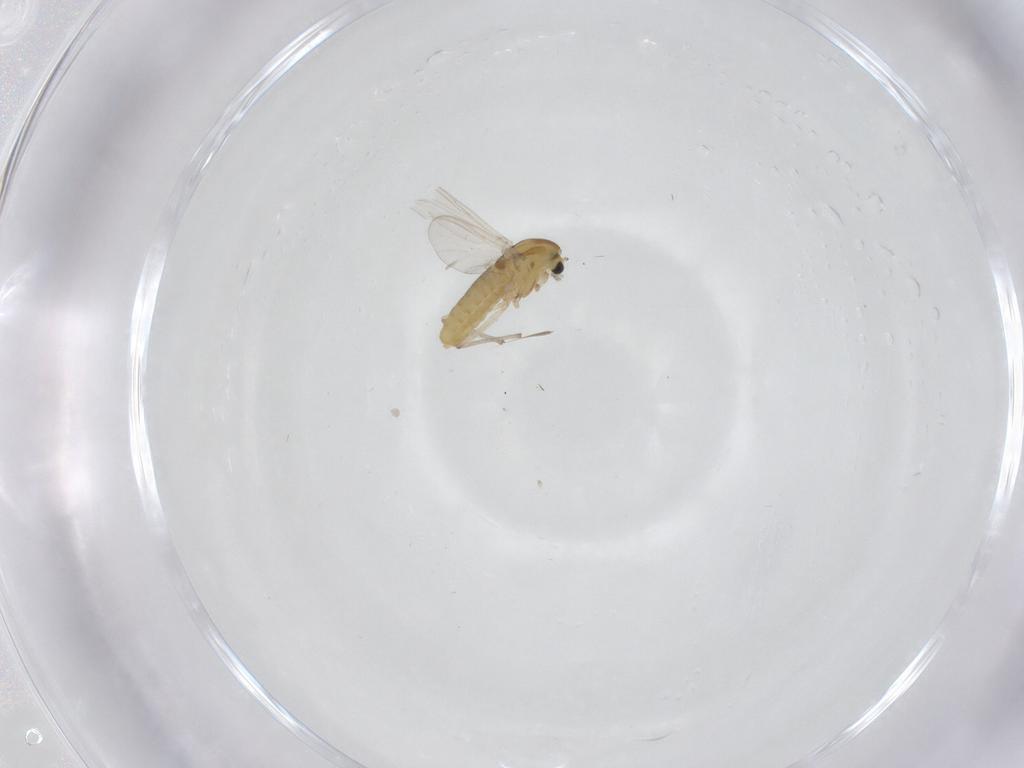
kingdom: Animalia
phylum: Arthropoda
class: Insecta
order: Diptera
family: Chironomidae
